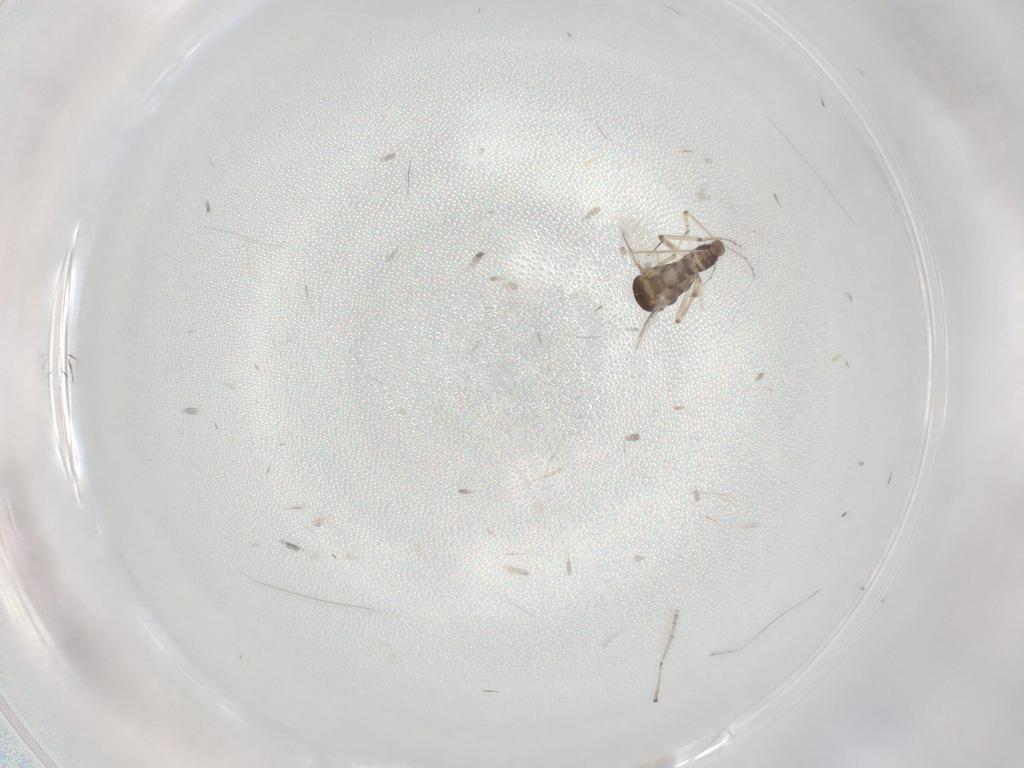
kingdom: Animalia
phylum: Arthropoda
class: Insecta
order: Diptera
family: Ceratopogonidae
